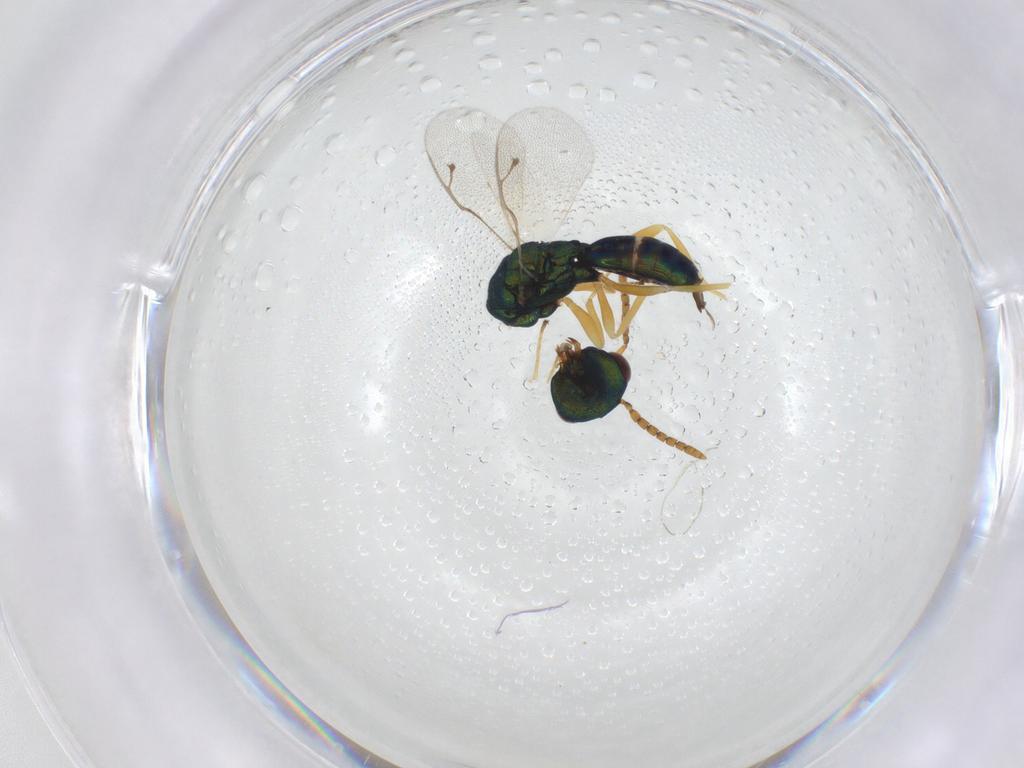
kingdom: Animalia
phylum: Arthropoda
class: Insecta
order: Hymenoptera
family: Pteromalidae
